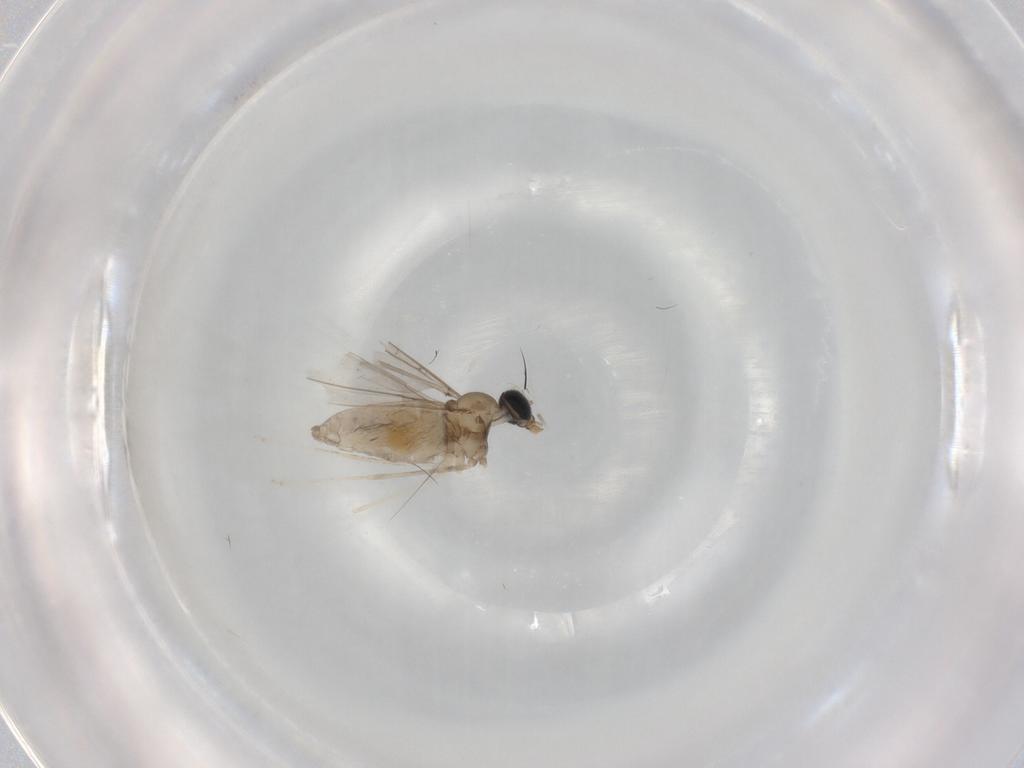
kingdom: Animalia
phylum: Arthropoda
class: Insecta
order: Diptera
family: Cecidomyiidae
